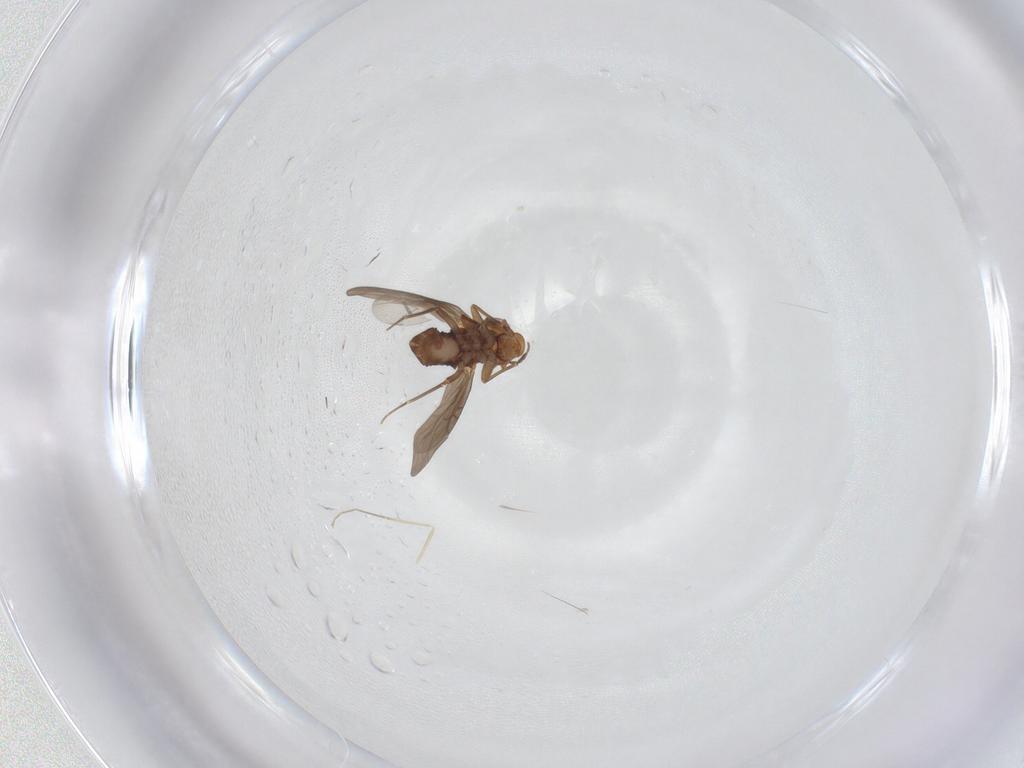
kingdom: Animalia
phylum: Arthropoda
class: Insecta
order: Diptera
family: Cecidomyiidae
